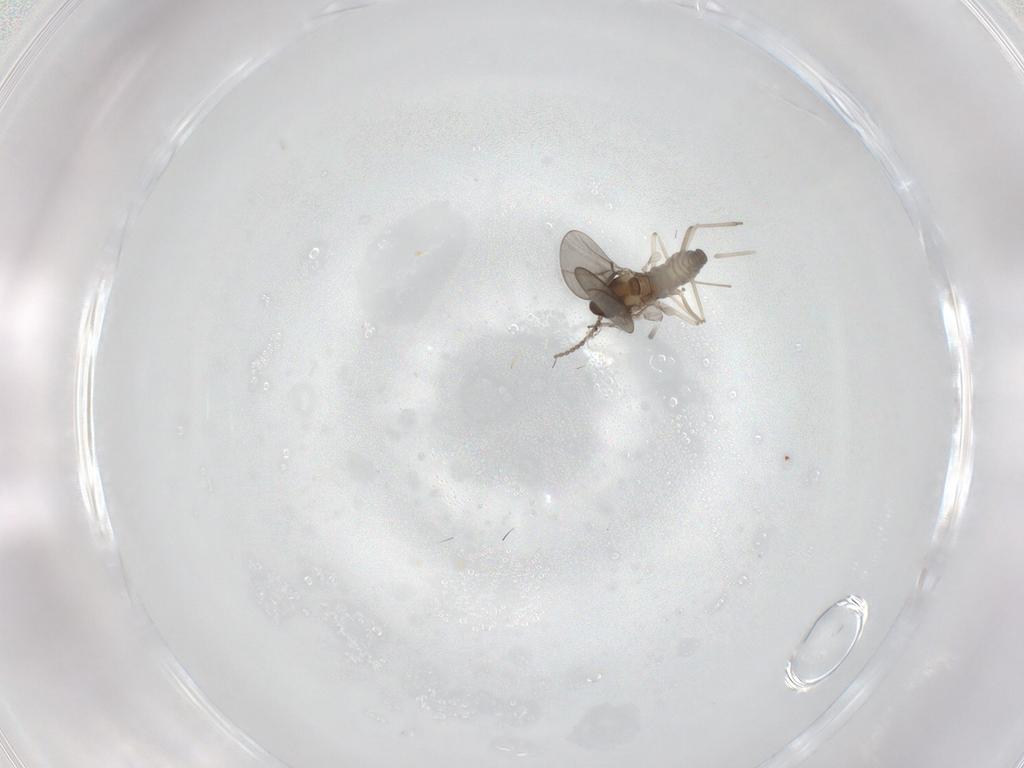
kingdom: Animalia
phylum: Arthropoda
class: Insecta
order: Diptera
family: Cecidomyiidae
